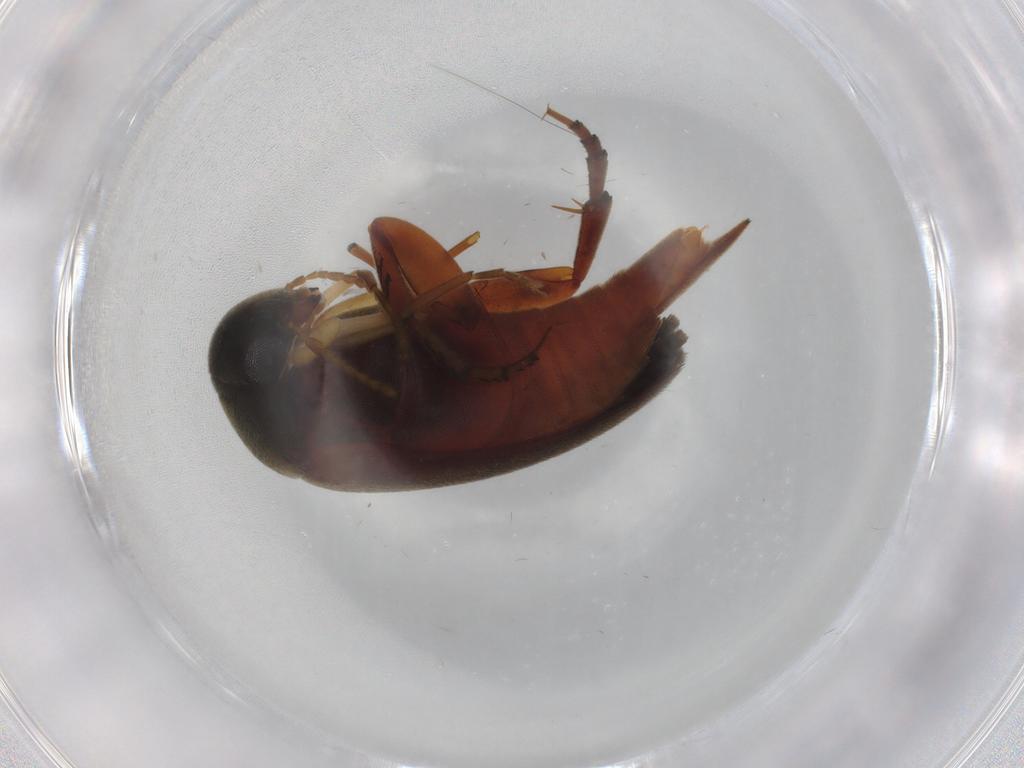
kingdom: Animalia
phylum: Arthropoda
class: Insecta
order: Coleoptera
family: Mordellidae
